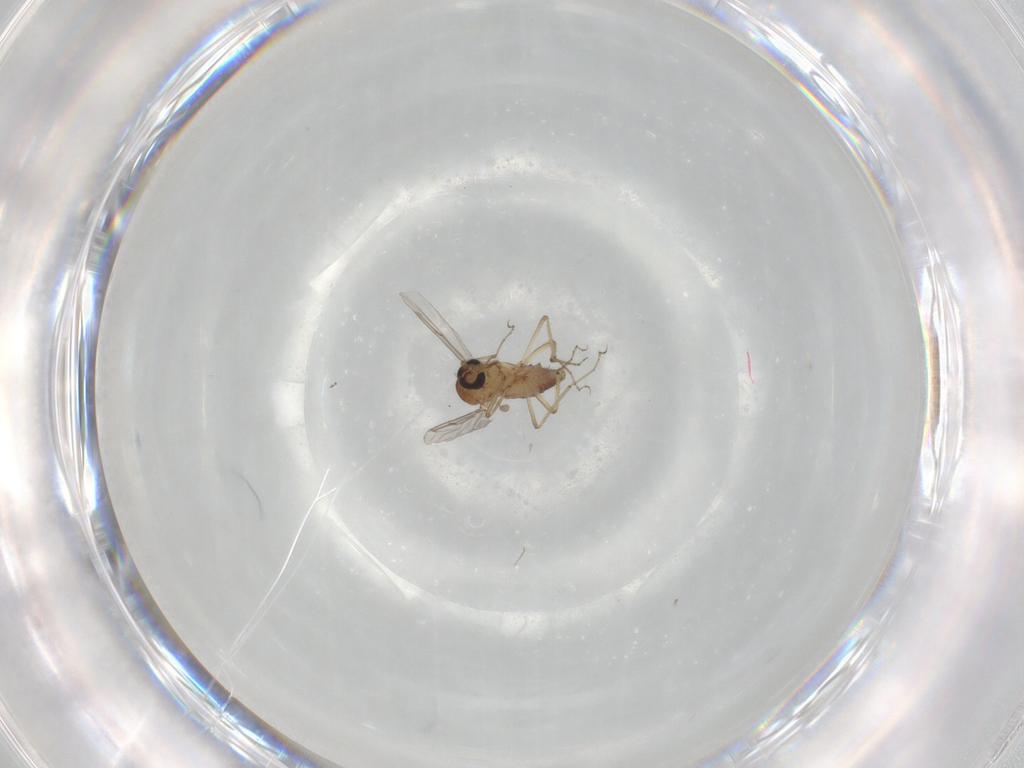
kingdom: Animalia
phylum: Arthropoda
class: Insecta
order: Diptera
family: Ceratopogonidae
